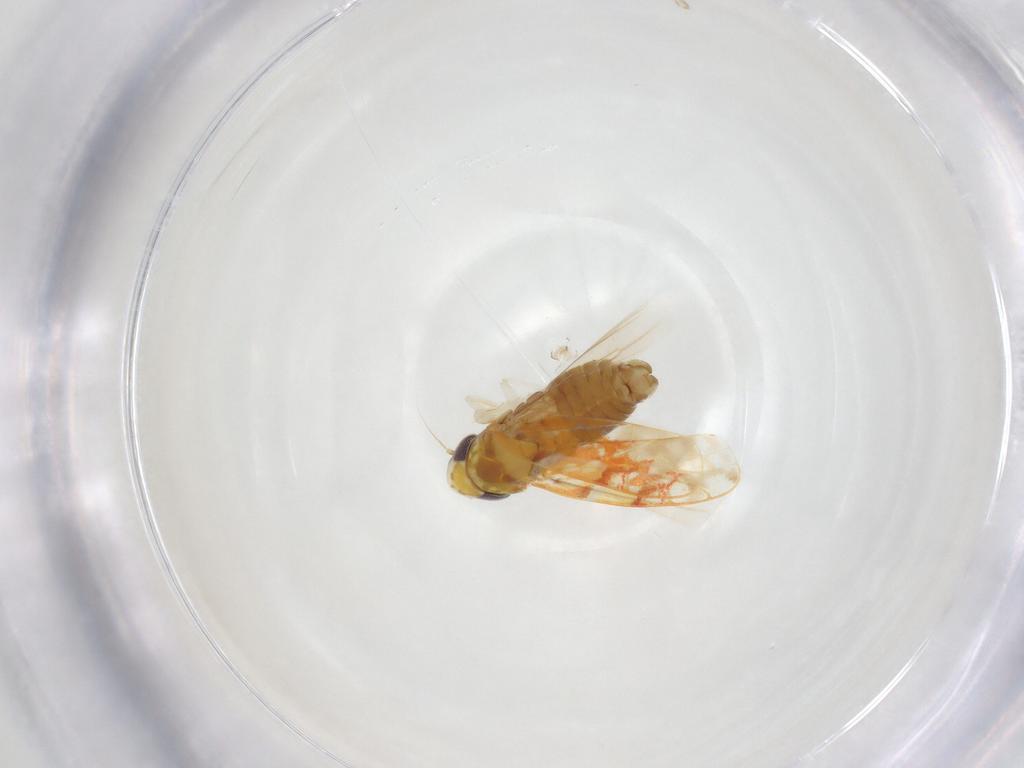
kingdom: Animalia
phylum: Arthropoda
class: Insecta
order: Hemiptera
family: Cicadellidae
